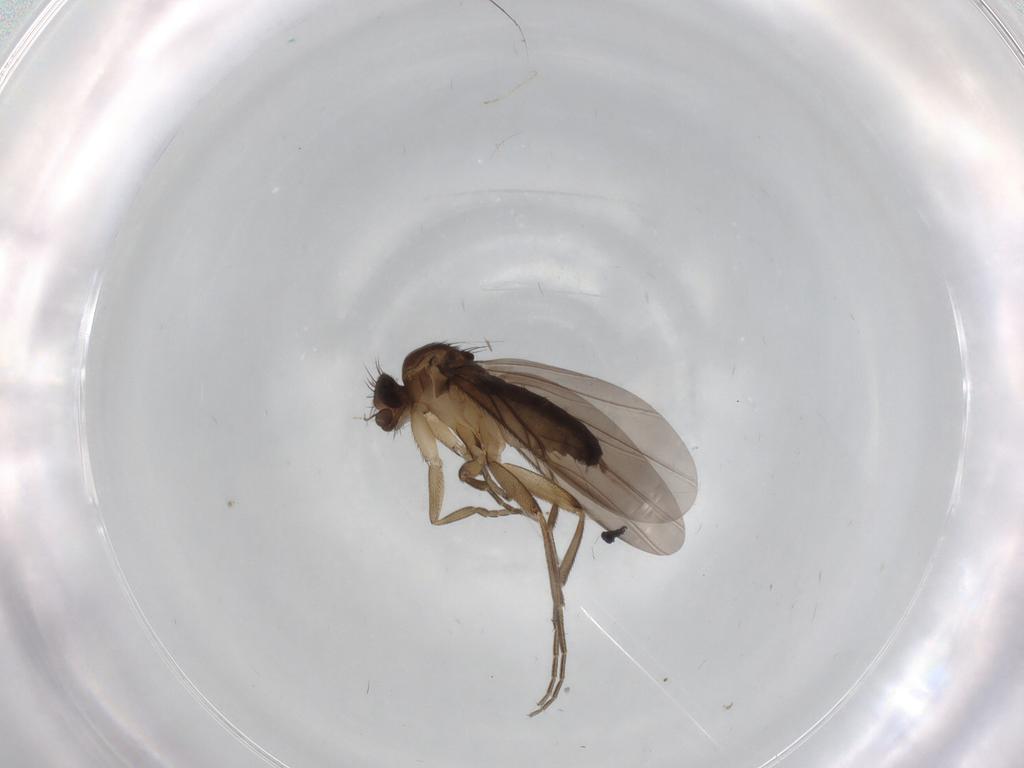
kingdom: Animalia
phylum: Arthropoda
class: Insecta
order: Diptera
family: Phoridae
